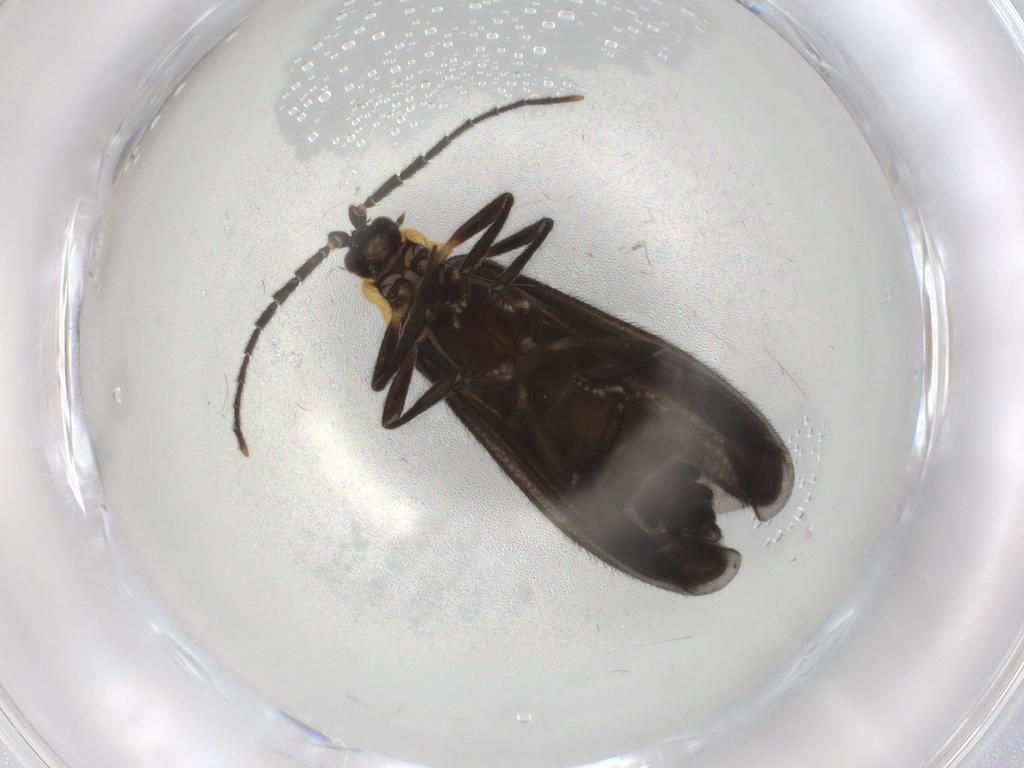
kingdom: Animalia
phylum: Arthropoda
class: Insecta
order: Coleoptera
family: Lycidae
